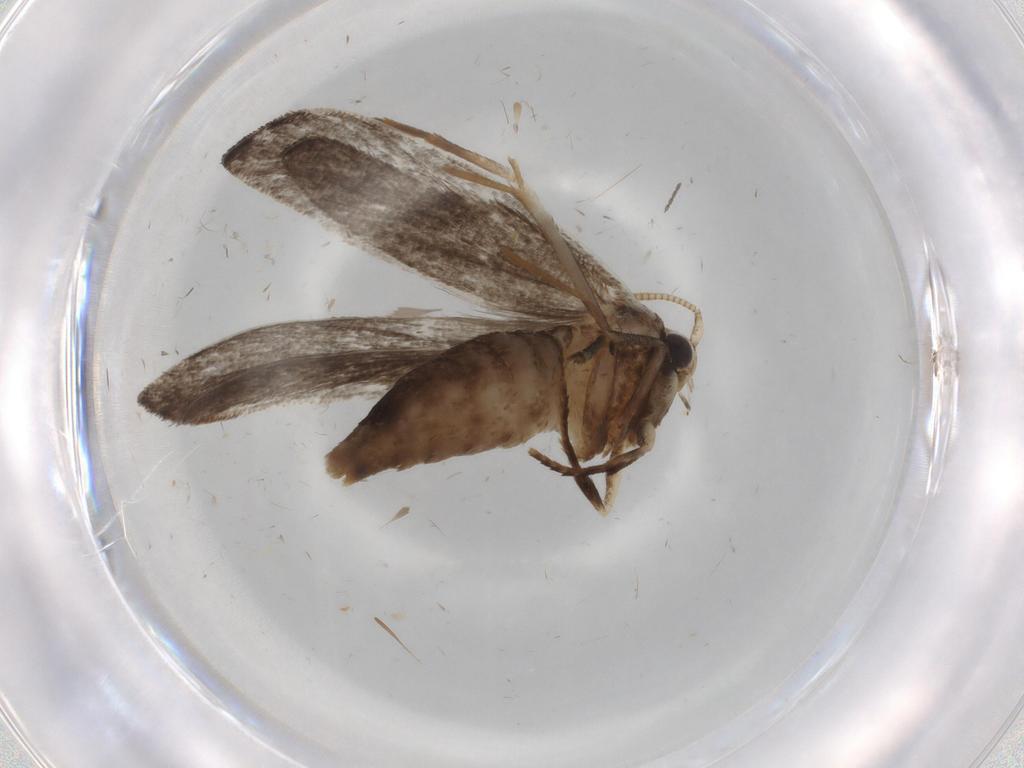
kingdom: Animalia
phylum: Arthropoda
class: Insecta
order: Lepidoptera
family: Tineidae
